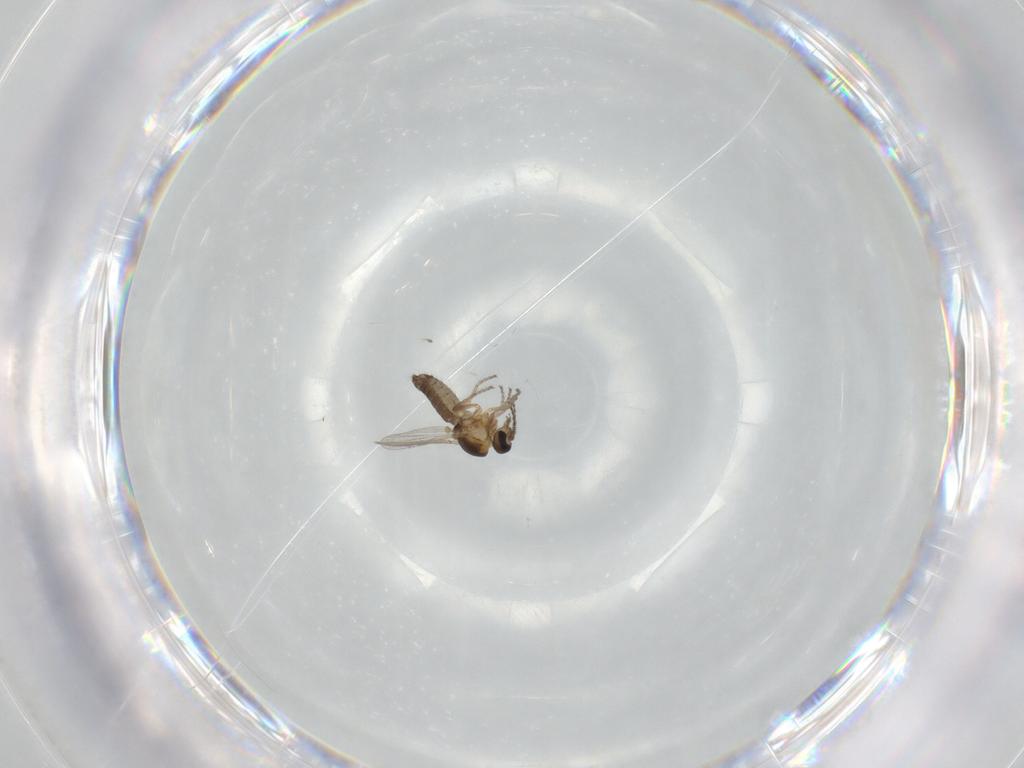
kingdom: Animalia
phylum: Arthropoda
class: Insecta
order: Diptera
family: Ceratopogonidae
